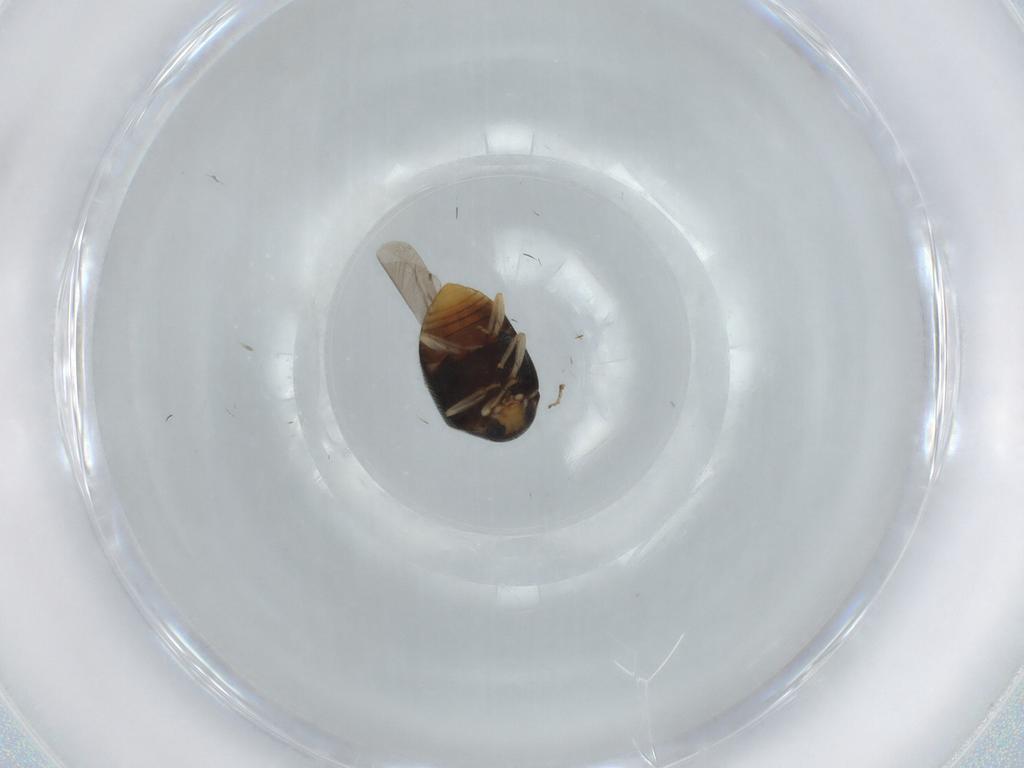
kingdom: Animalia
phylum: Arthropoda
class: Insecta
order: Coleoptera
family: Coccinellidae
